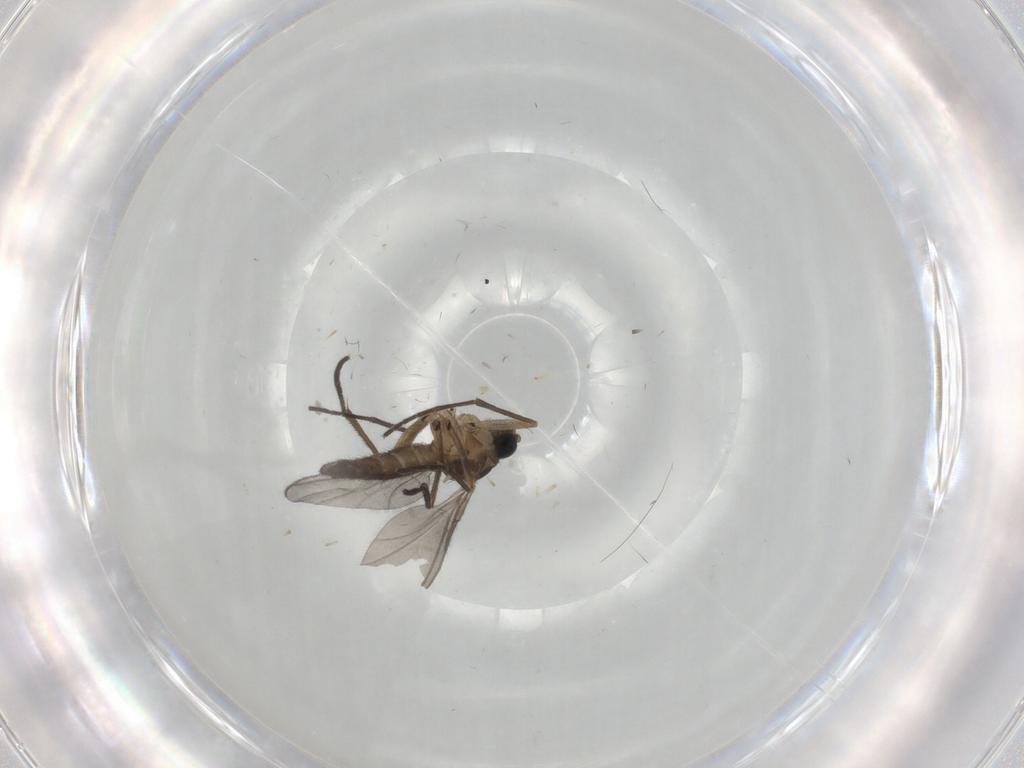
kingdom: Animalia
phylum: Arthropoda
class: Insecta
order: Diptera
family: Sciaridae
